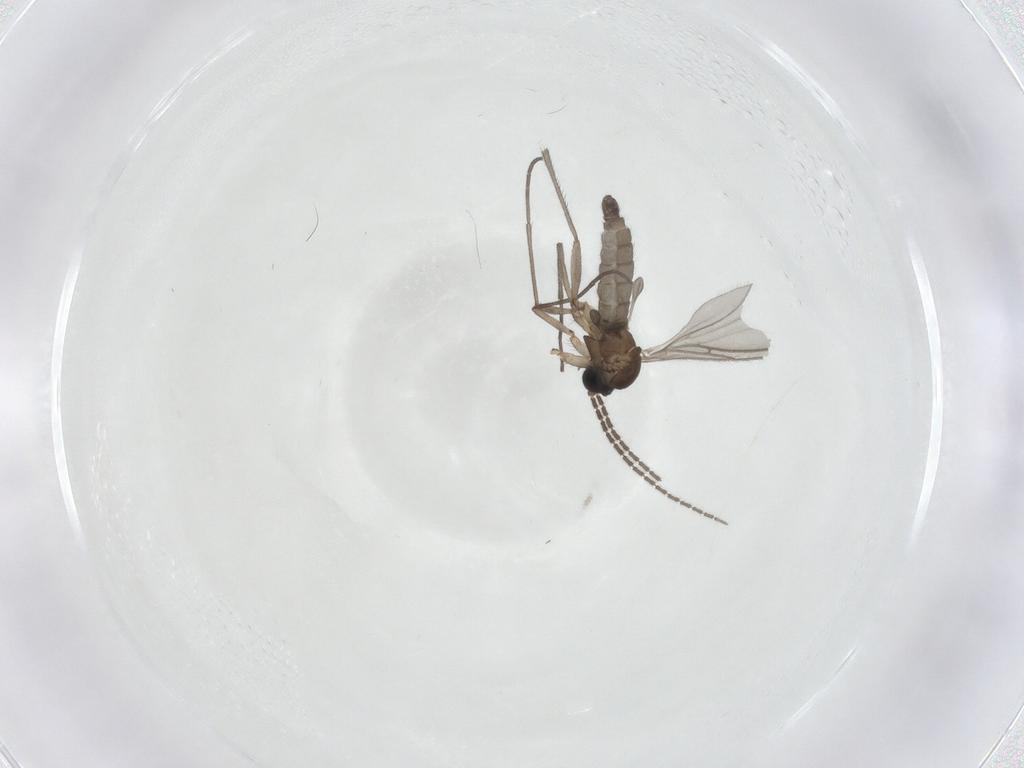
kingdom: Animalia
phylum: Arthropoda
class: Insecta
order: Diptera
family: Sciaridae
